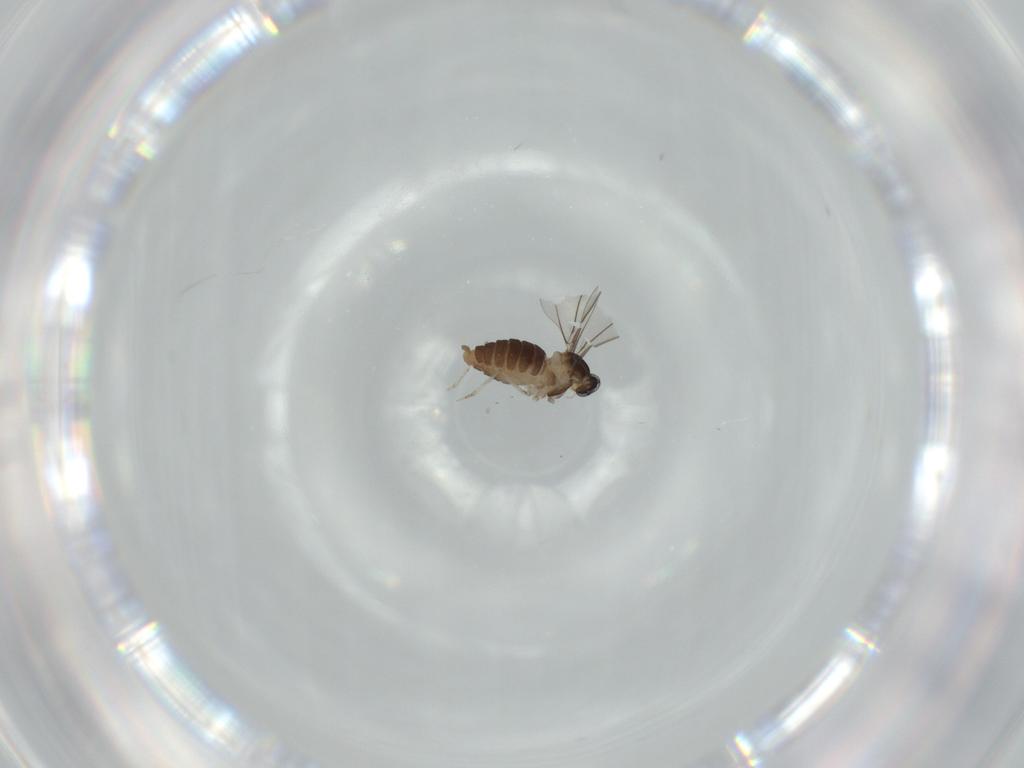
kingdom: Animalia
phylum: Arthropoda
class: Insecta
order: Diptera
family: Cecidomyiidae
